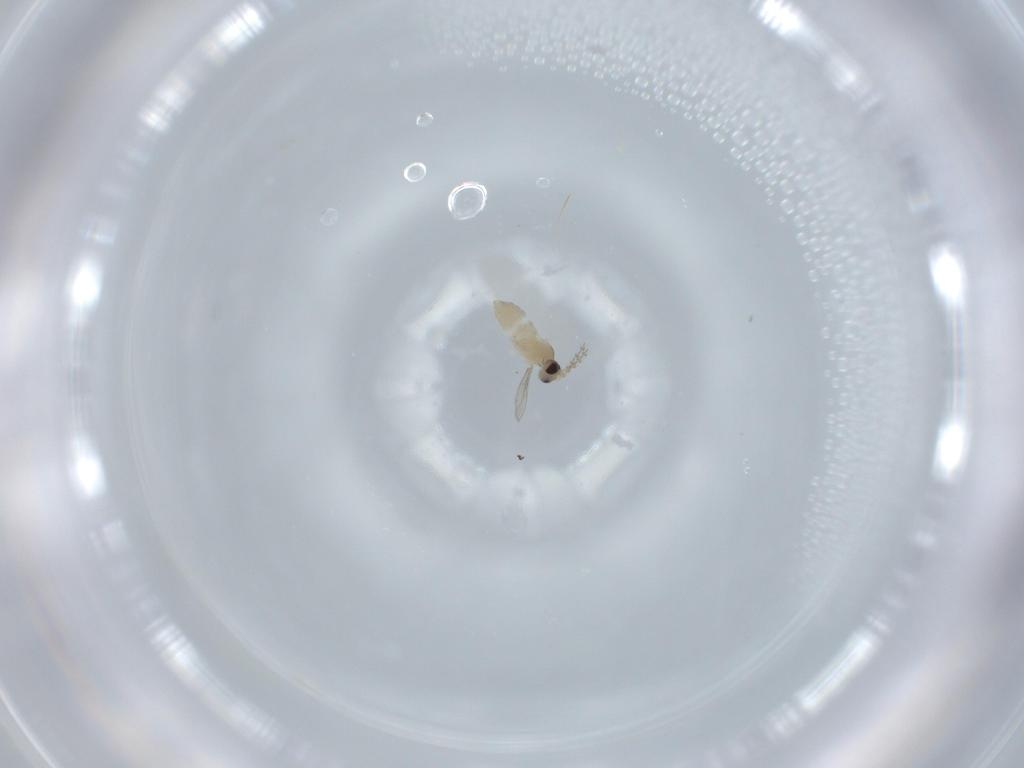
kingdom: Animalia
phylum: Arthropoda
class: Insecta
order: Diptera
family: Cecidomyiidae
